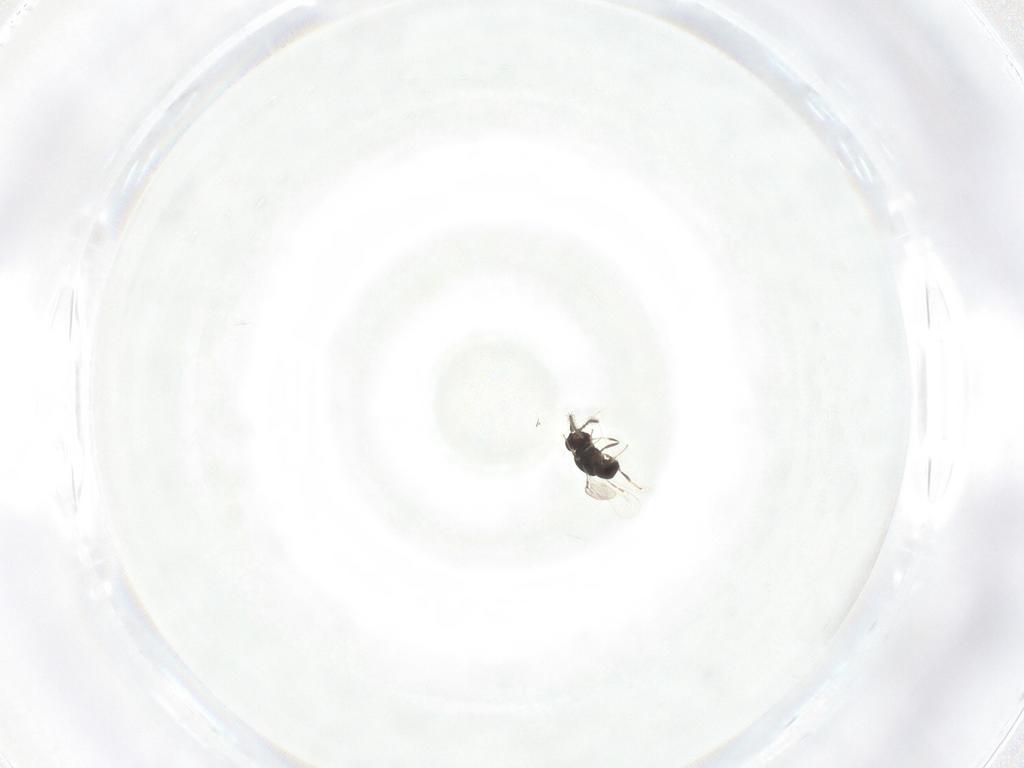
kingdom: Animalia
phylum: Arthropoda
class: Insecta
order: Hymenoptera
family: Ceraphronidae
